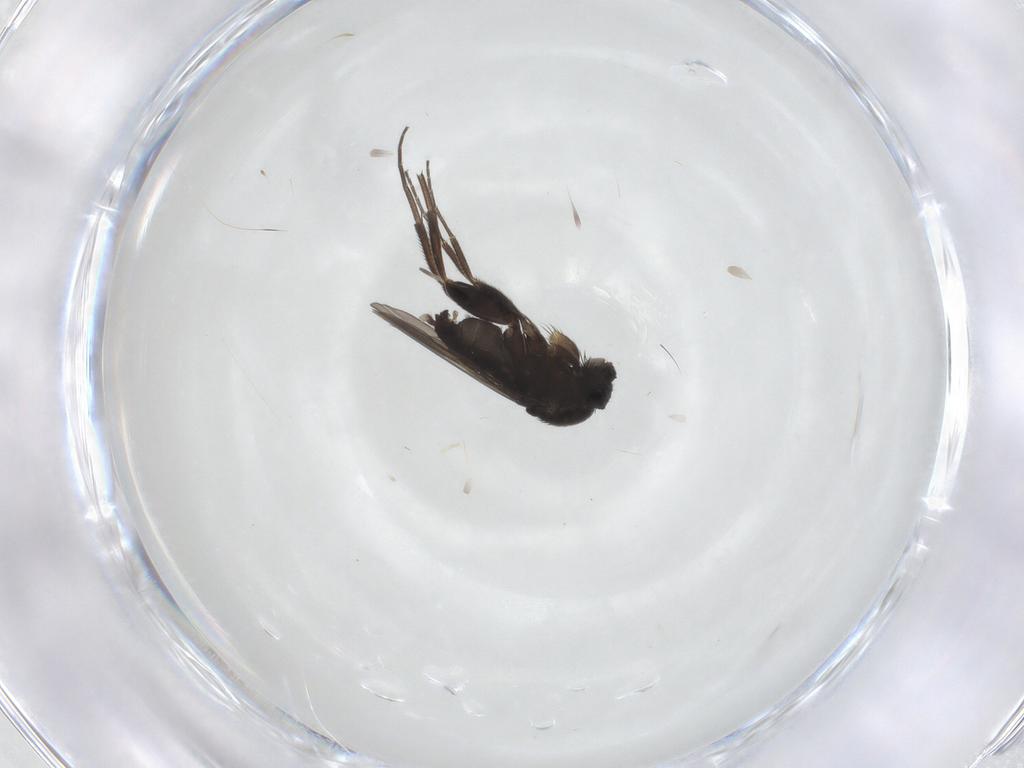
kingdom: Animalia
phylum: Arthropoda
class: Insecta
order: Diptera
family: Phoridae
